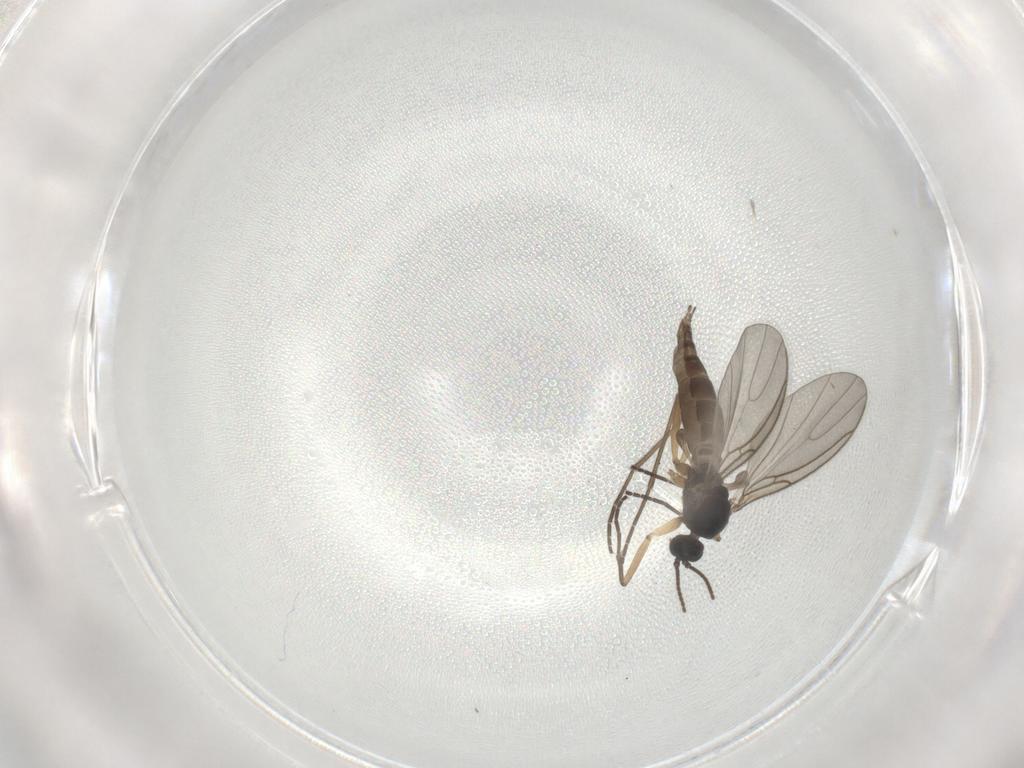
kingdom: Animalia
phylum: Arthropoda
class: Insecta
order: Diptera
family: Sciaridae
